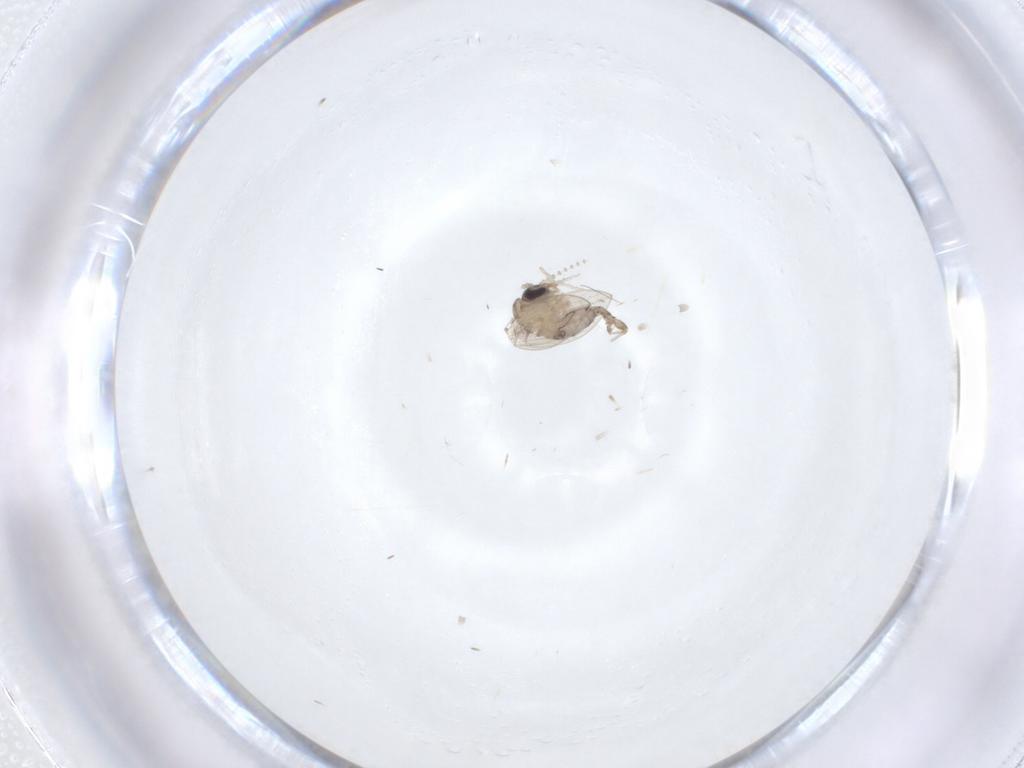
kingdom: Animalia
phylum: Arthropoda
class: Insecta
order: Diptera
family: Psychodidae
